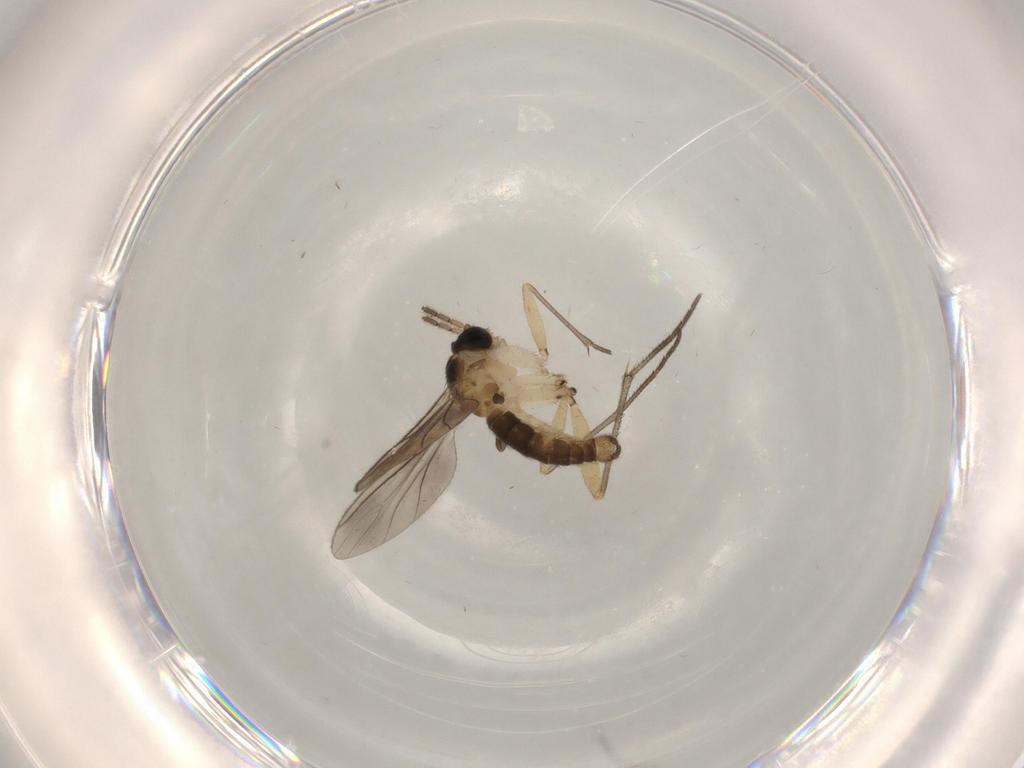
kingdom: Animalia
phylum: Arthropoda
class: Insecta
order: Diptera
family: Sciaridae
